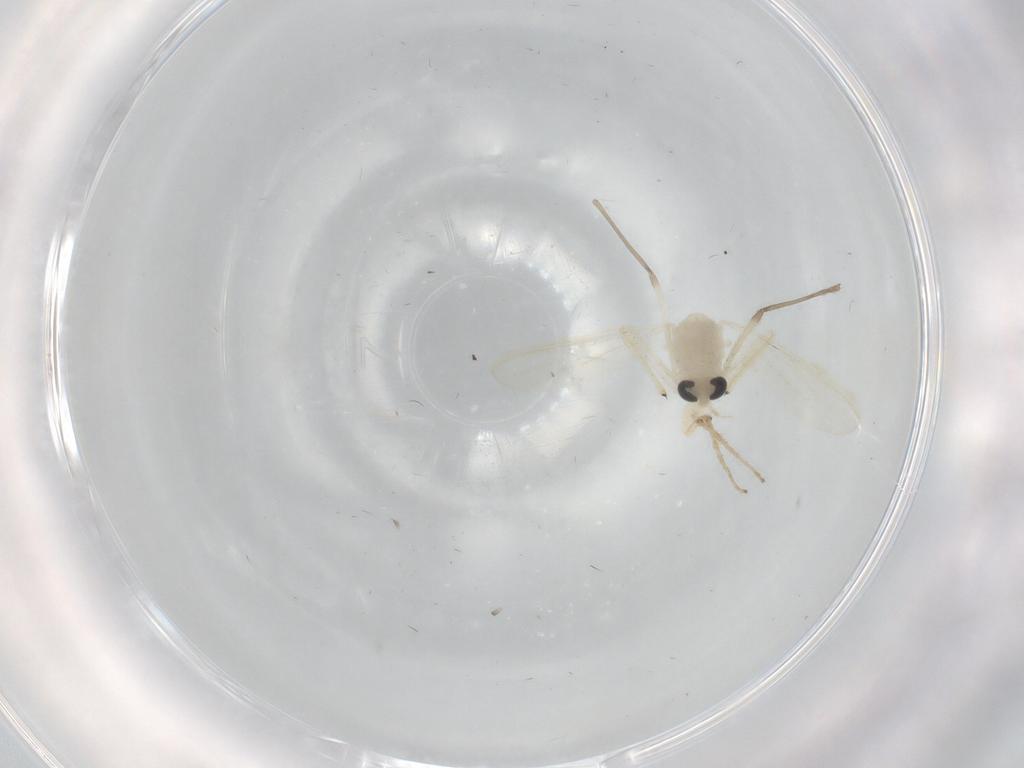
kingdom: Animalia
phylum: Arthropoda
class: Insecta
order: Diptera
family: Cecidomyiidae
